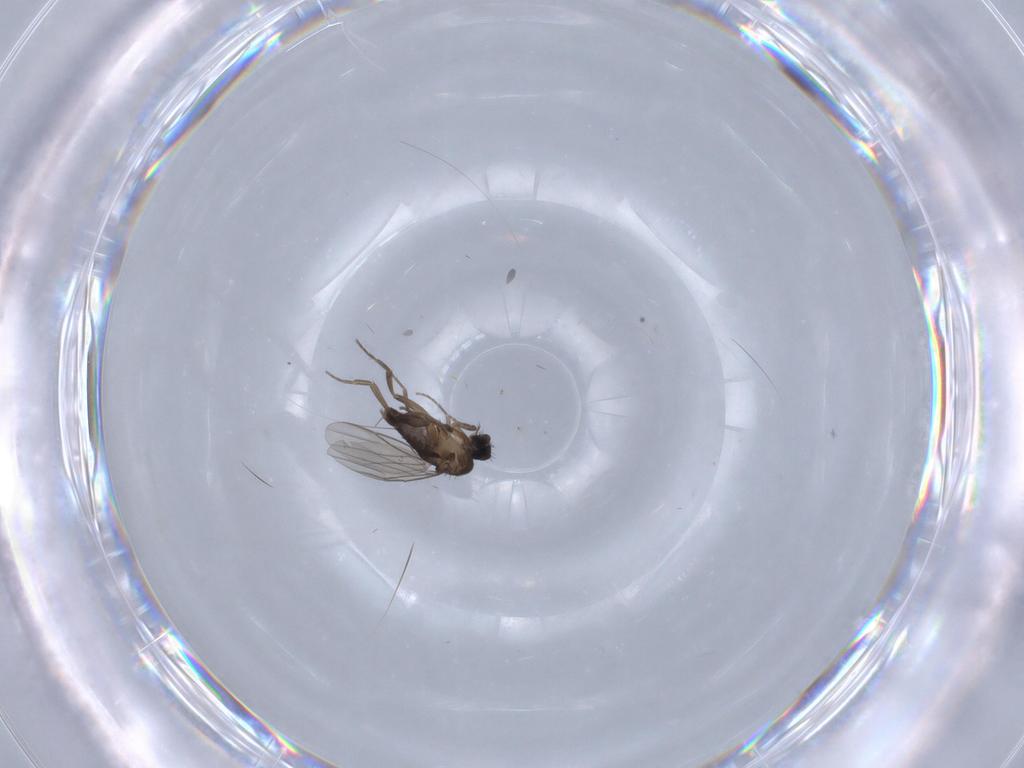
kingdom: Animalia
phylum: Arthropoda
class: Insecta
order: Diptera
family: Phoridae
